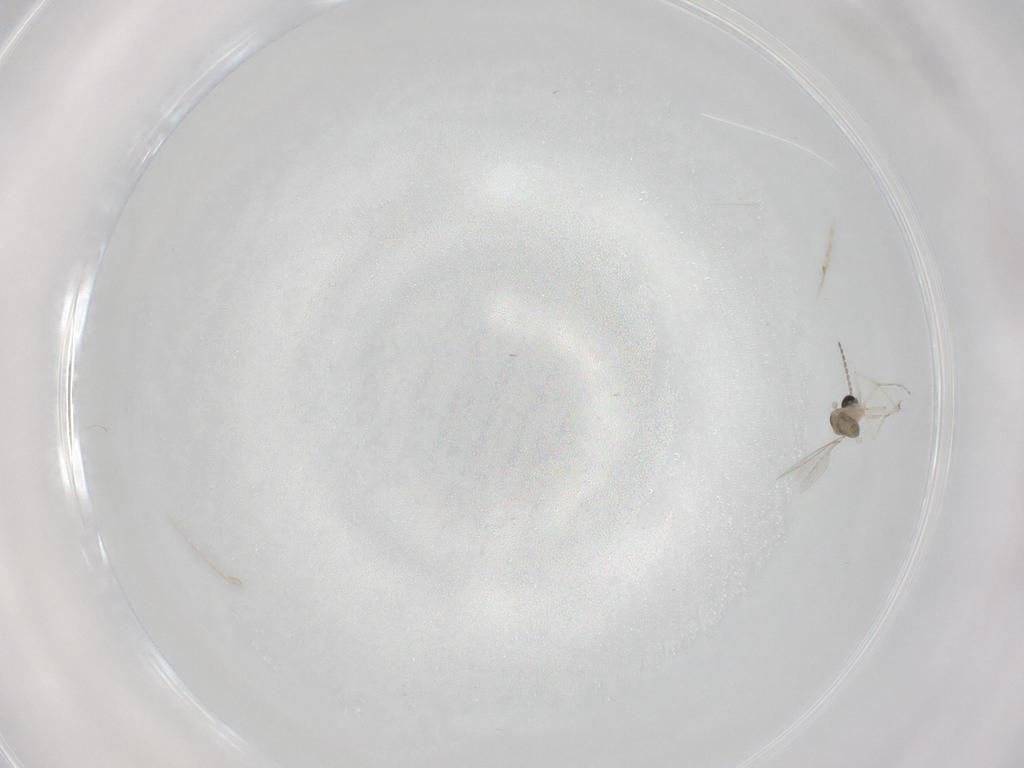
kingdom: Animalia
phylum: Arthropoda
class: Insecta
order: Diptera
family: Cecidomyiidae
